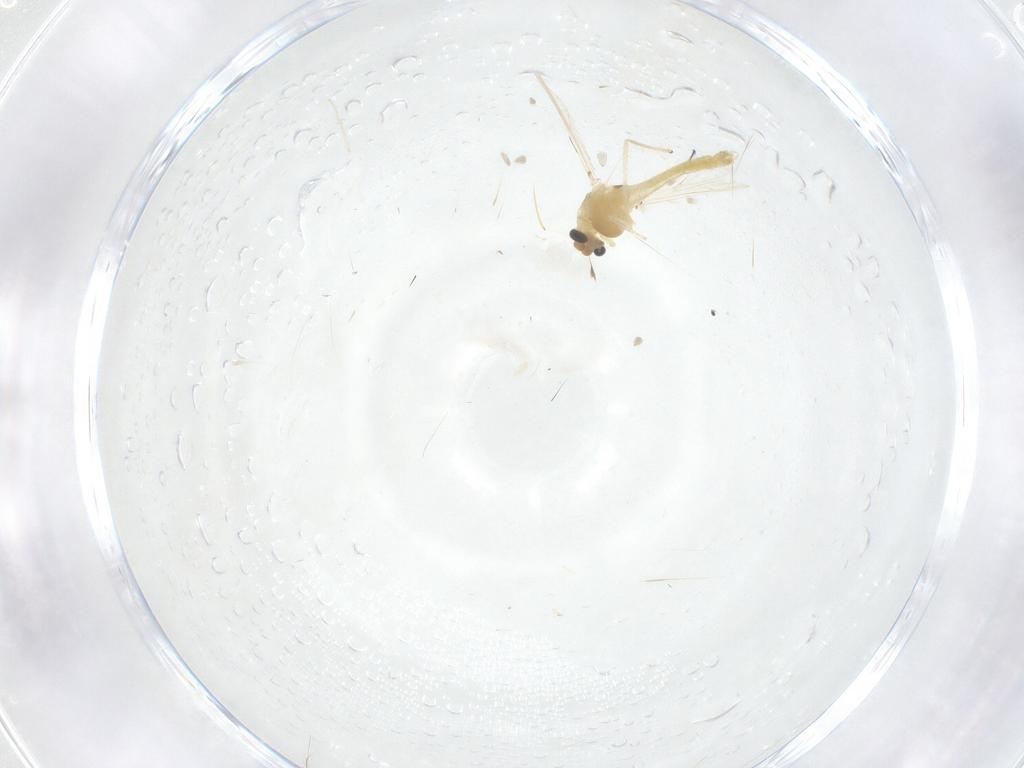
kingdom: Animalia
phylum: Arthropoda
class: Insecta
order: Diptera
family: Chironomidae
